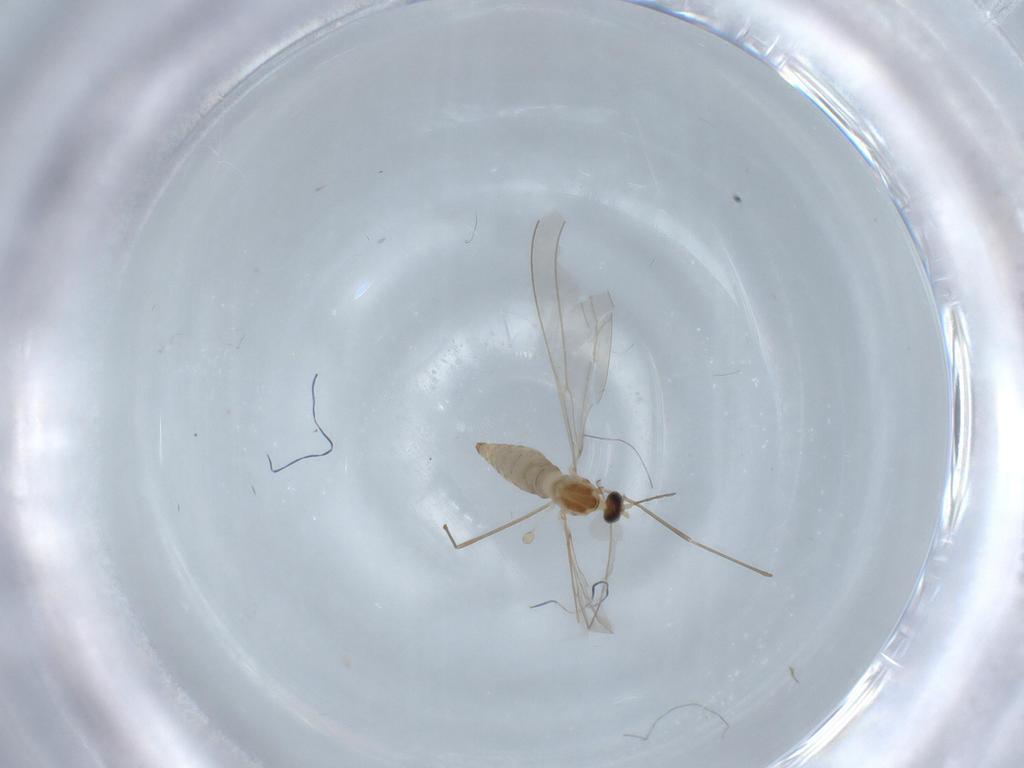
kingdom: Animalia
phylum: Arthropoda
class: Insecta
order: Diptera
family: Cecidomyiidae
